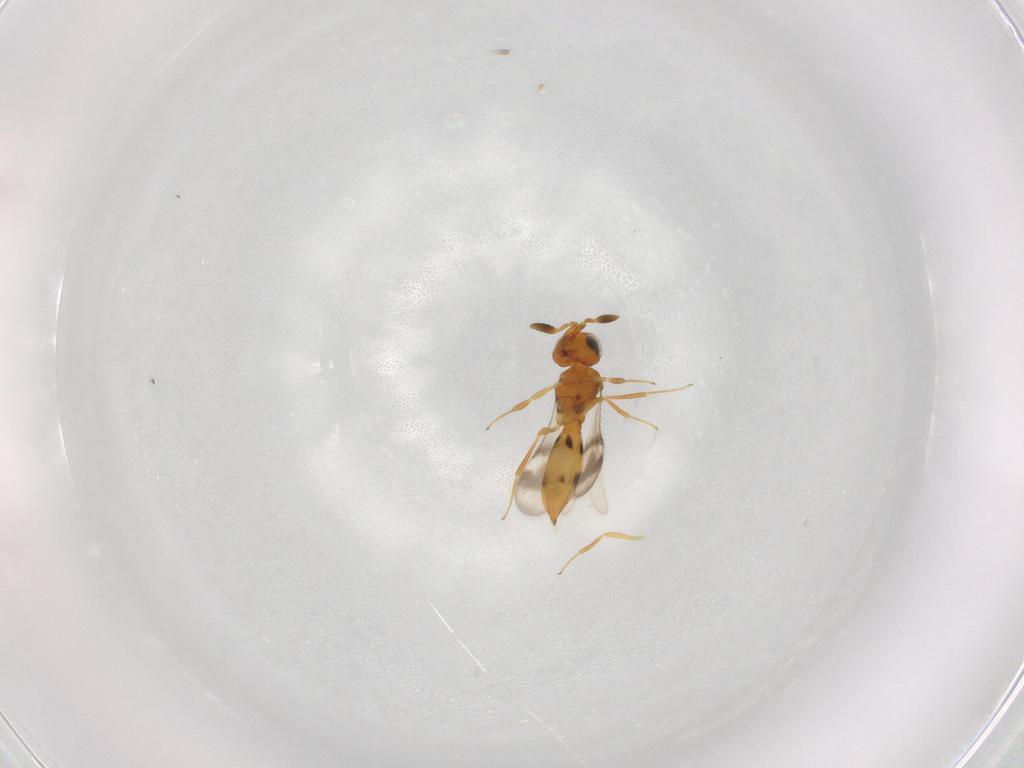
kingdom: Animalia
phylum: Arthropoda
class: Insecta
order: Hymenoptera
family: Scelionidae
